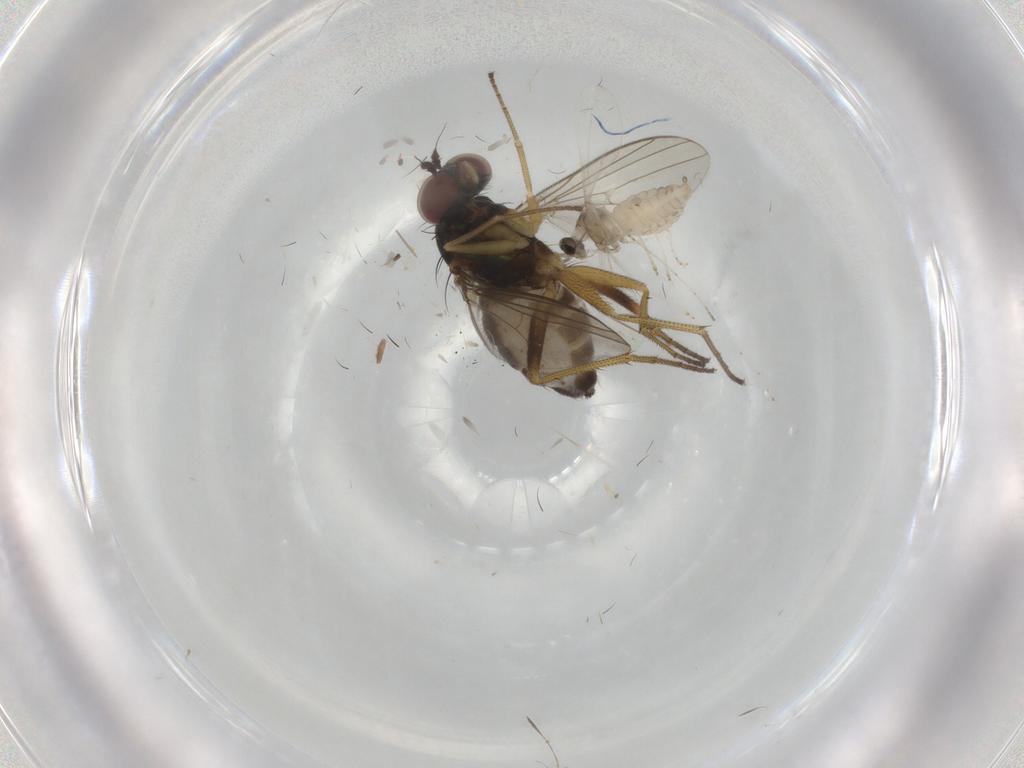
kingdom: Animalia
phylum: Arthropoda
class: Insecta
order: Diptera
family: Dolichopodidae
